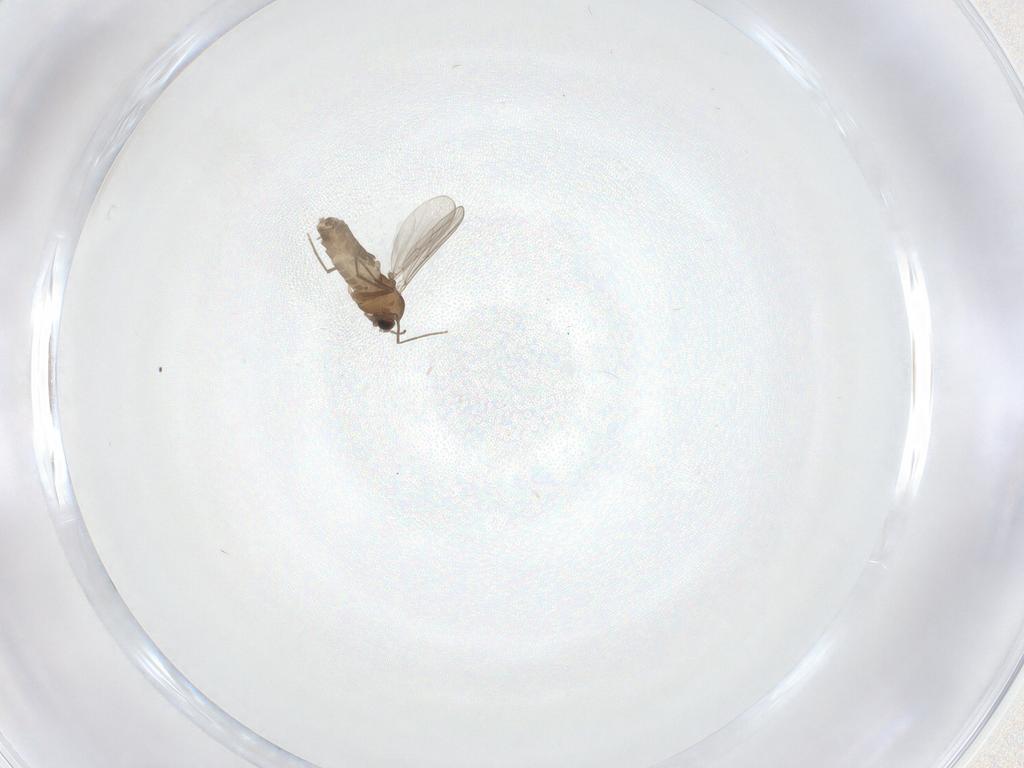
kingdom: Animalia
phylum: Arthropoda
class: Insecta
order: Diptera
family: Chironomidae
